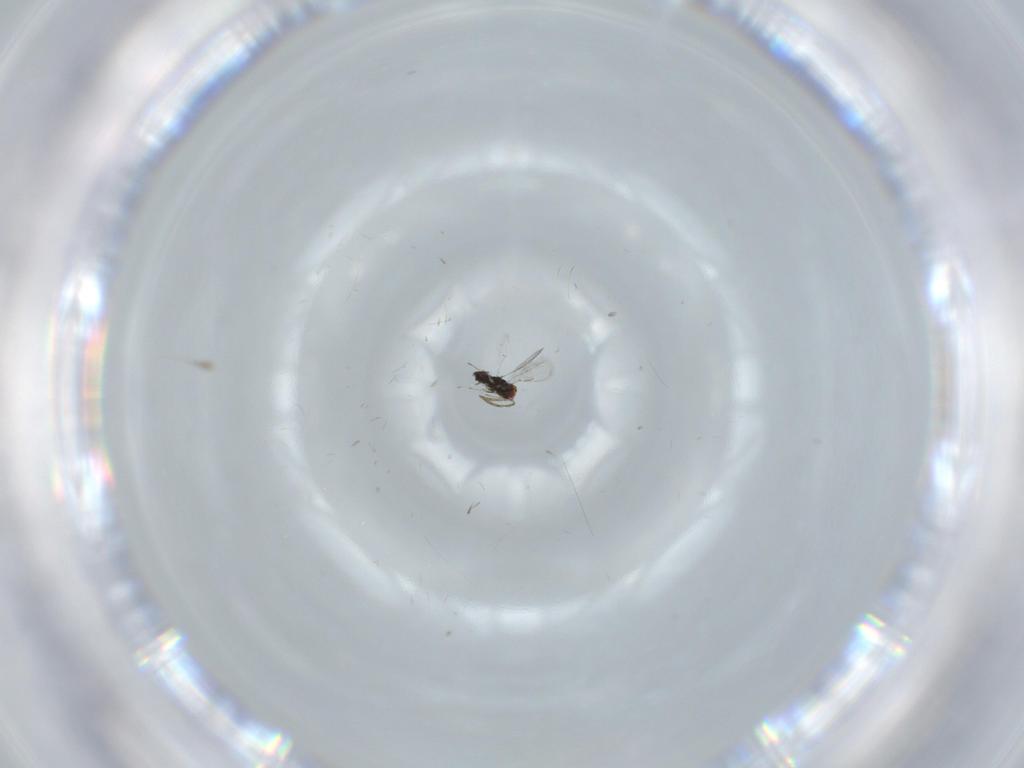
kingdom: Animalia
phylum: Arthropoda
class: Insecta
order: Hymenoptera
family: Azotidae
